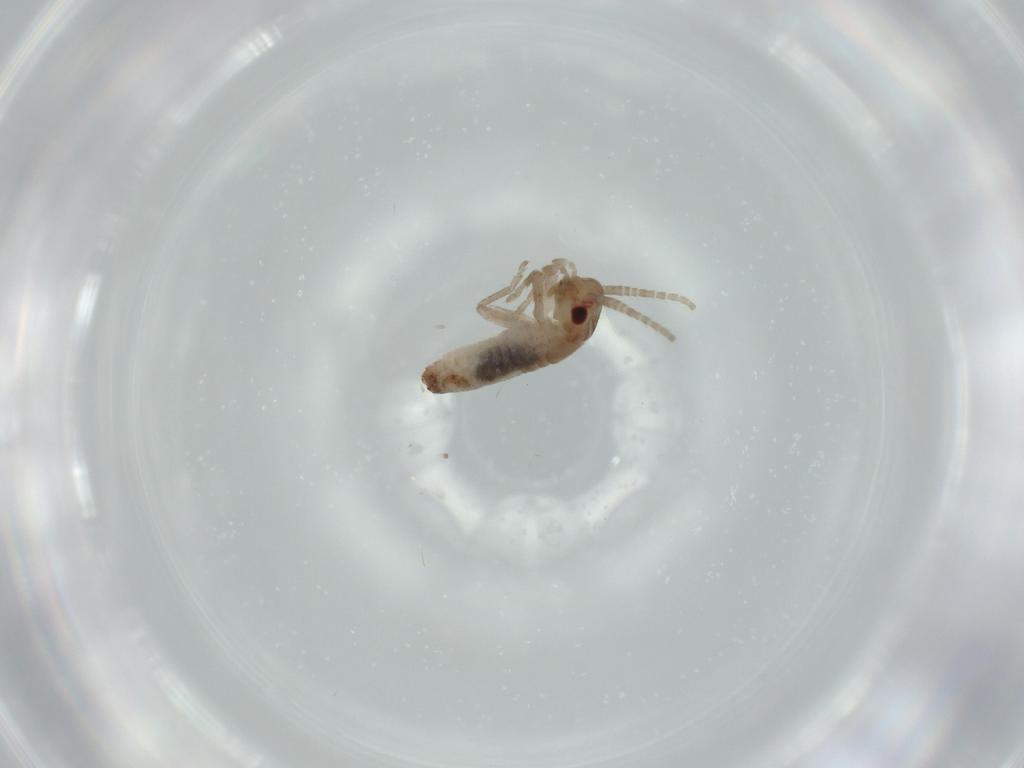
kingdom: Animalia
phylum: Arthropoda
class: Insecta
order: Orthoptera
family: Mogoplistidae
